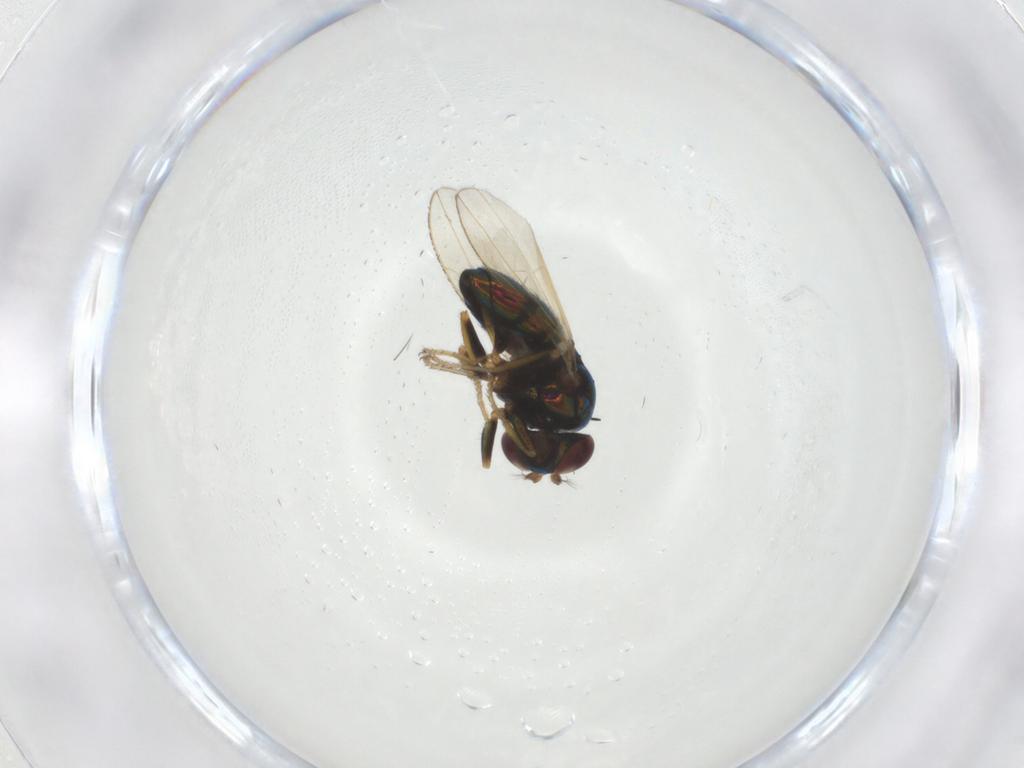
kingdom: Animalia
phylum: Arthropoda
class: Insecta
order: Diptera
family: Ephydridae
